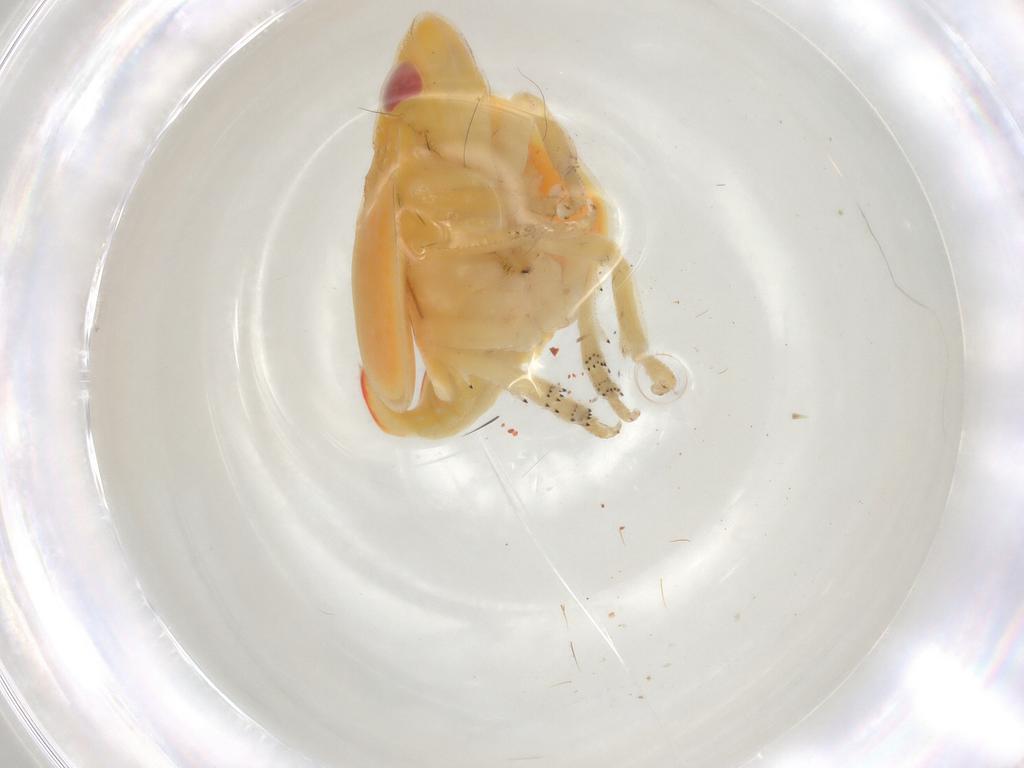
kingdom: Animalia
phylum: Arthropoda
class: Insecta
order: Hemiptera
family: Tropiduchidae
